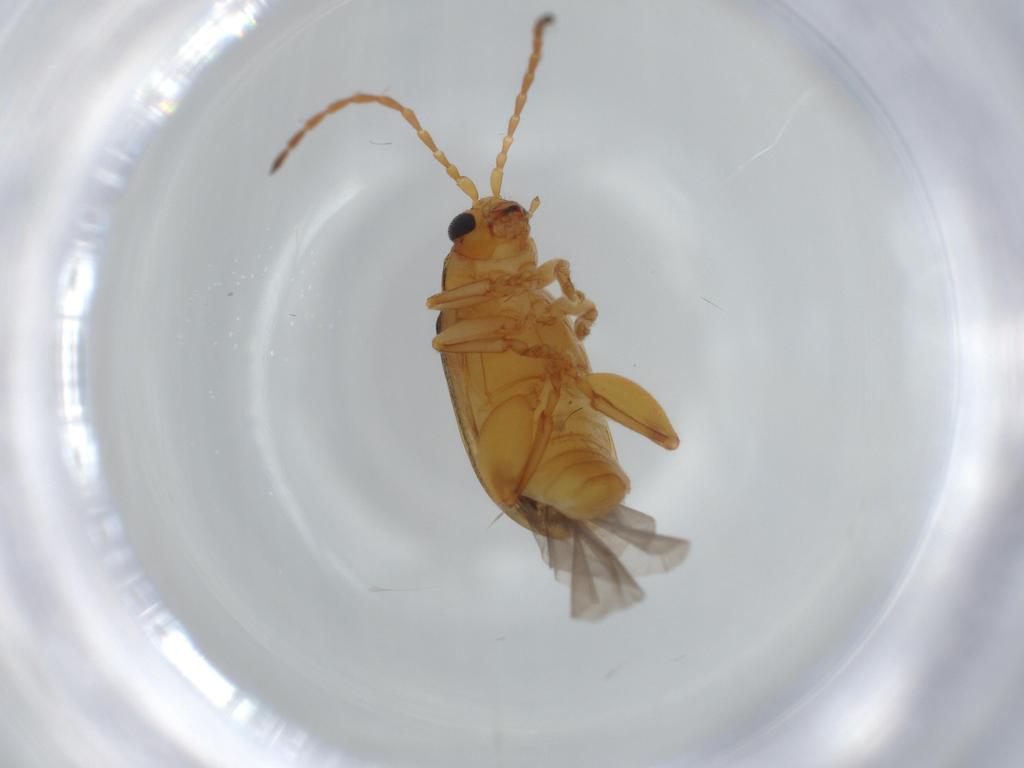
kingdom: Animalia
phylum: Arthropoda
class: Insecta
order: Coleoptera
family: Chrysomelidae
